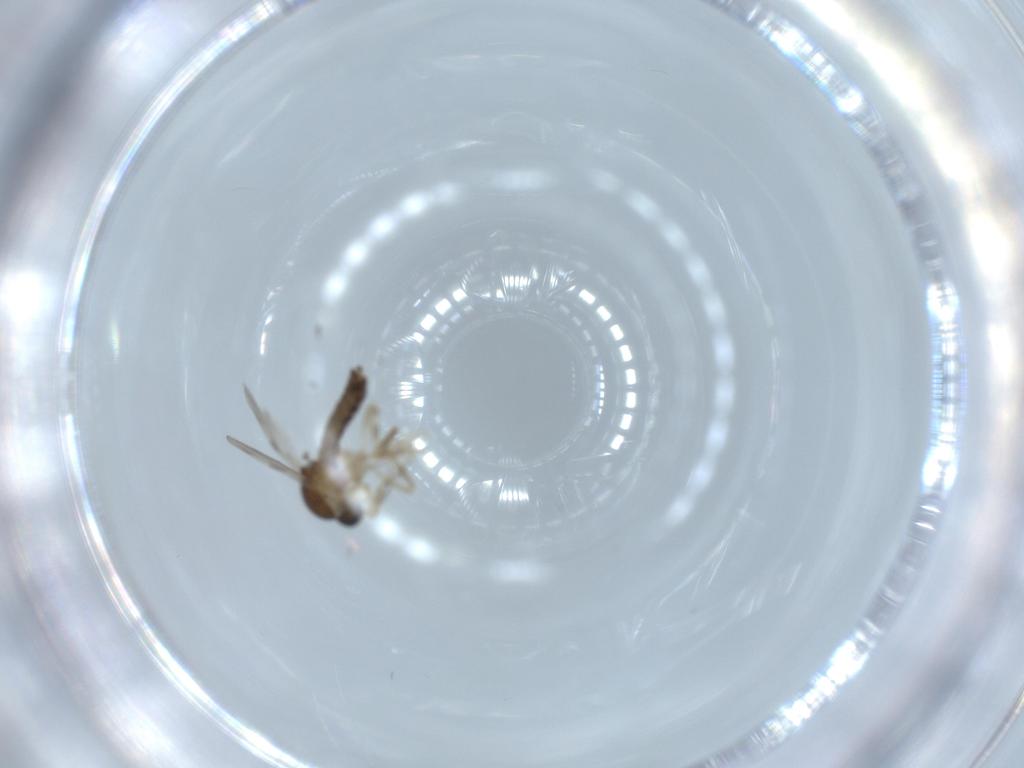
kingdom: Animalia
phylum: Arthropoda
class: Insecta
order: Diptera
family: Ceratopogonidae
